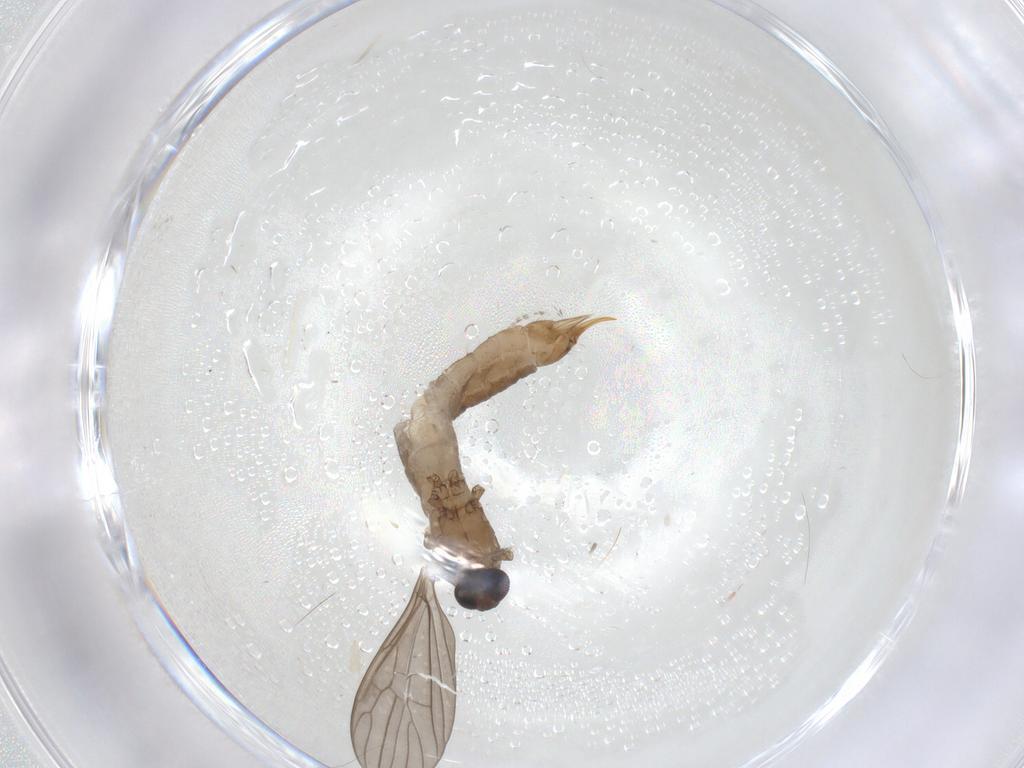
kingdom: Animalia
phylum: Arthropoda
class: Insecta
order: Diptera
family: Limoniidae
